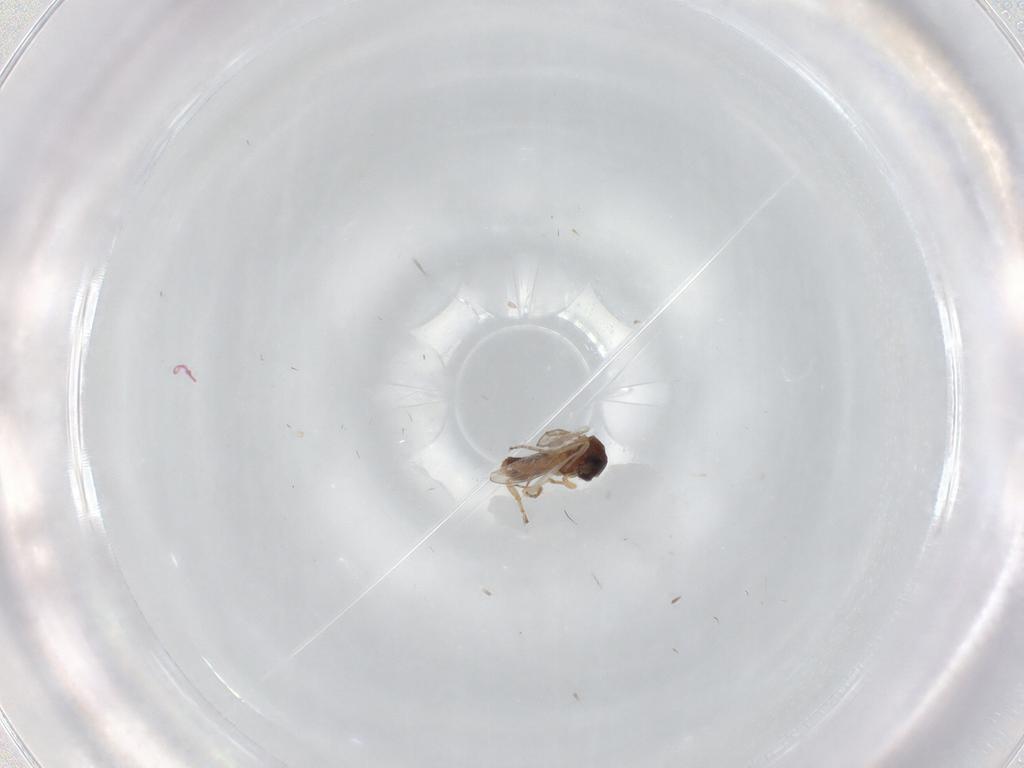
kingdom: Animalia
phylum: Arthropoda
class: Insecta
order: Diptera
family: Ceratopogonidae
